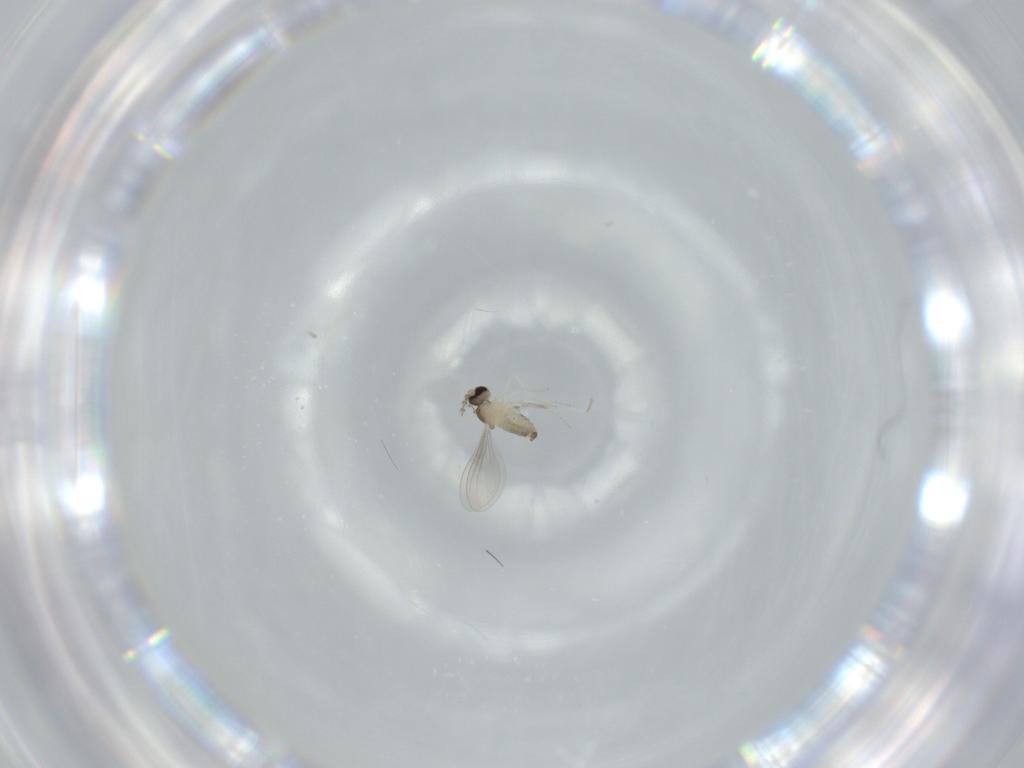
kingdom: Animalia
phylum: Arthropoda
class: Insecta
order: Diptera
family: Cecidomyiidae
